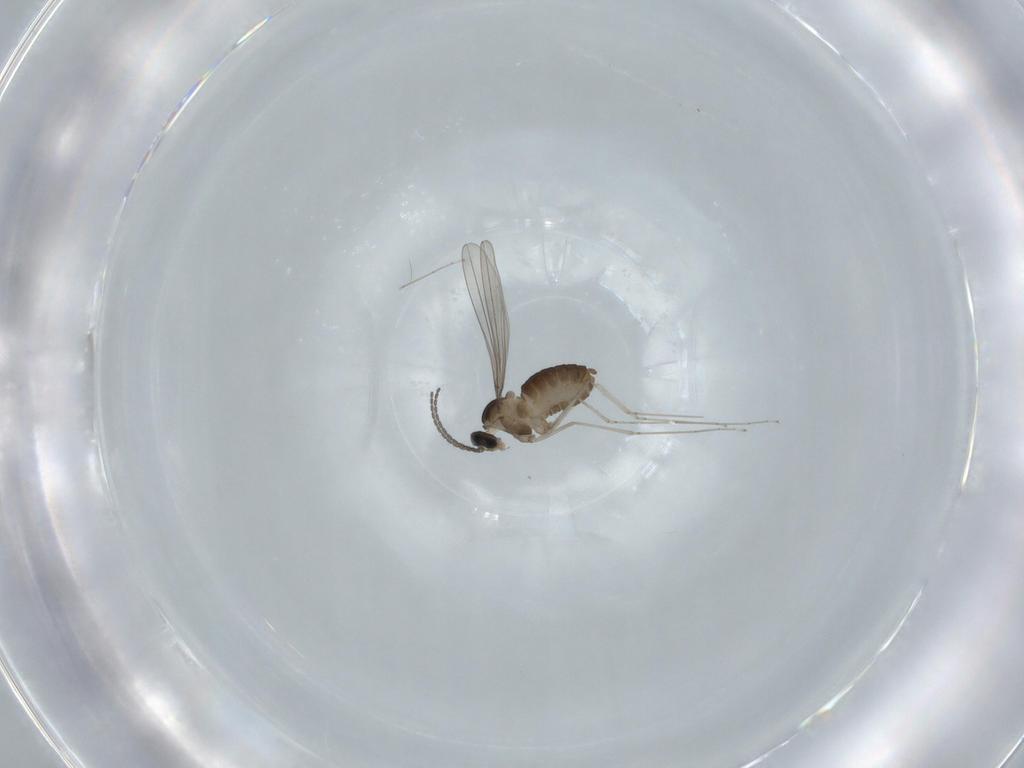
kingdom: Animalia
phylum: Arthropoda
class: Insecta
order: Diptera
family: Cecidomyiidae
